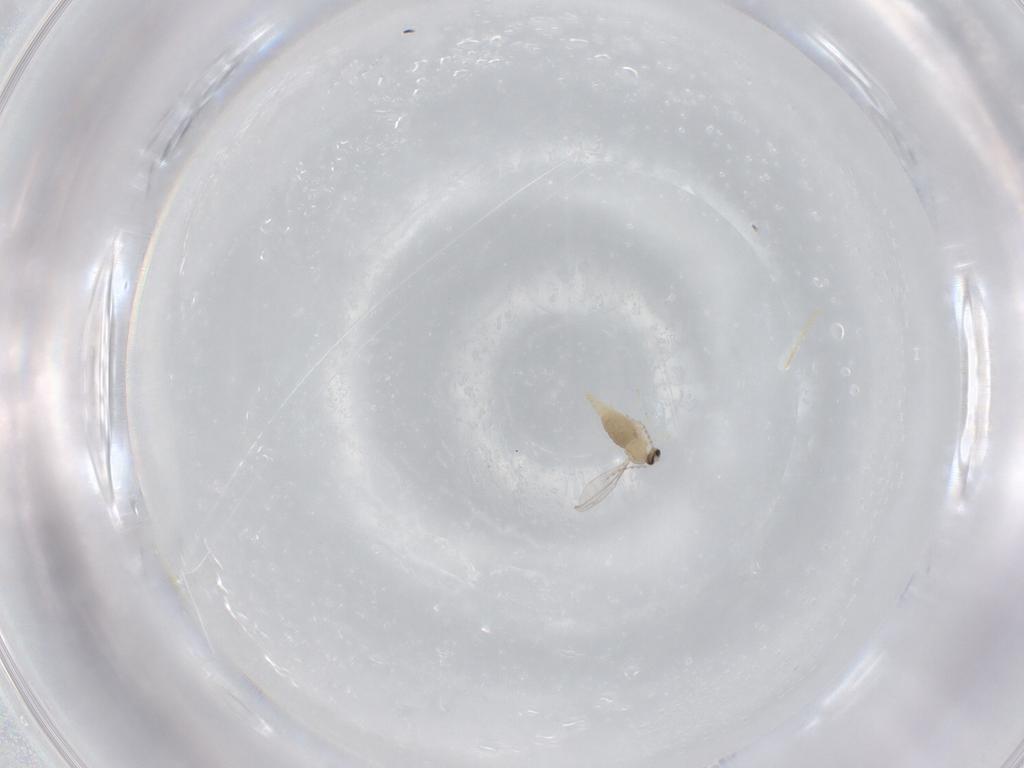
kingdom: Animalia
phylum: Arthropoda
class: Insecta
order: Diptera
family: Cecidomyiidae
